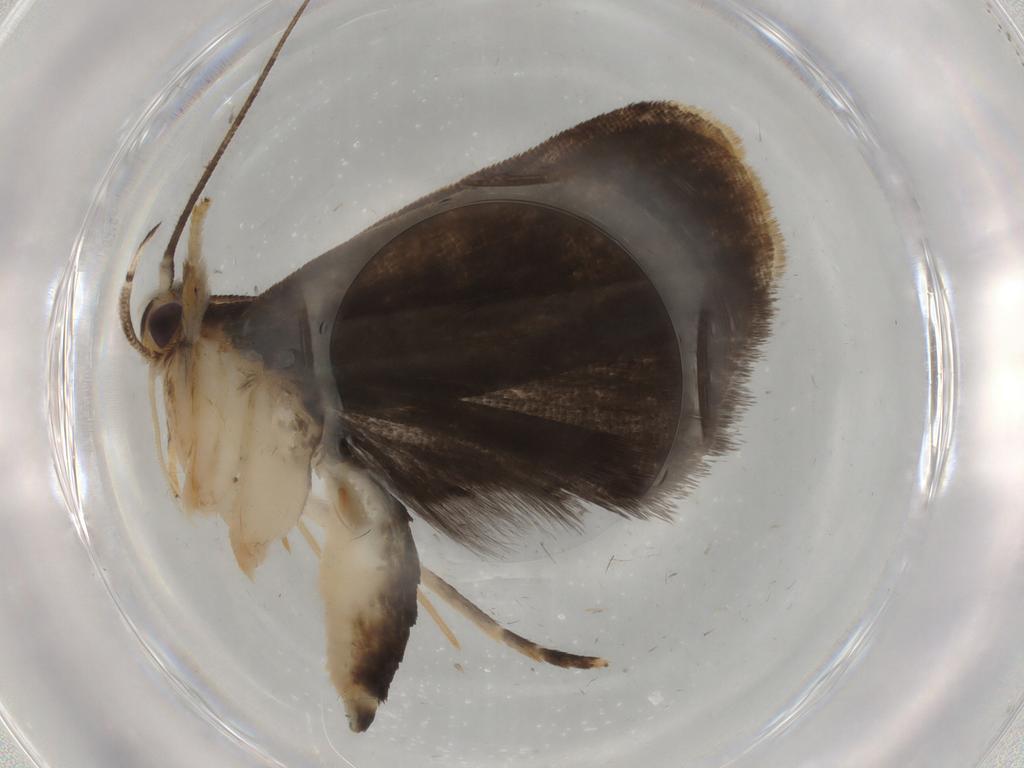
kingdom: Animalia
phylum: Arthropoda
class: Insecta
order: Lepidoptera
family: Gelechiidae
